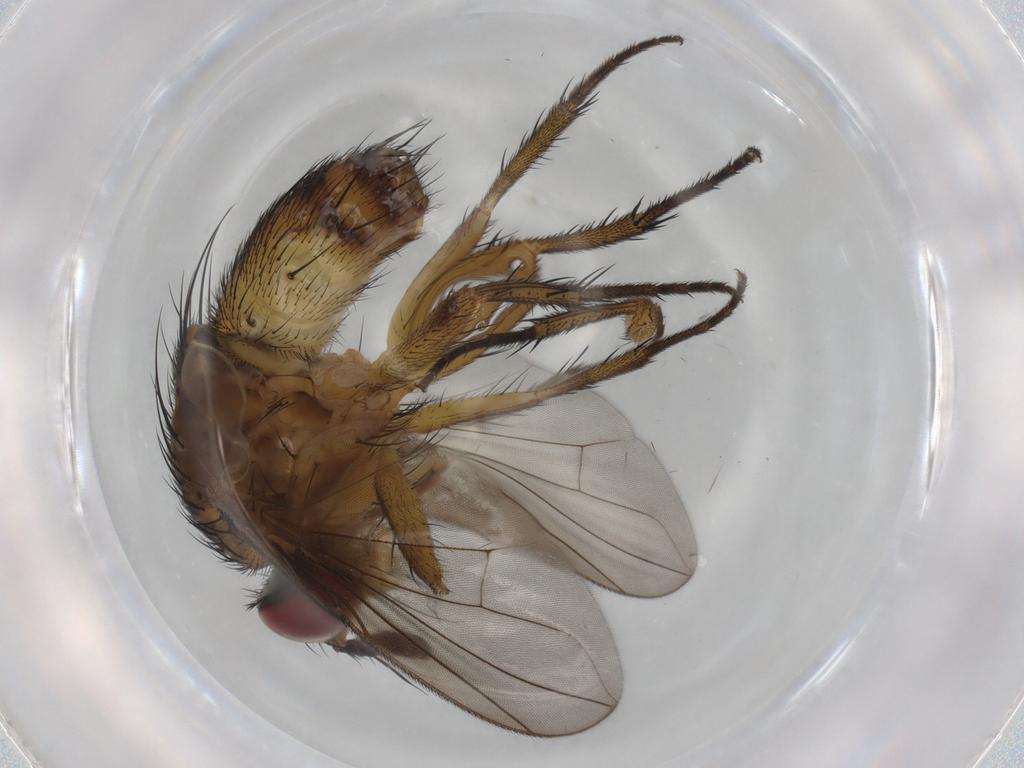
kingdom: Animalia
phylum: Arthropoda
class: Insecta
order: Diptera
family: Tachinidae
